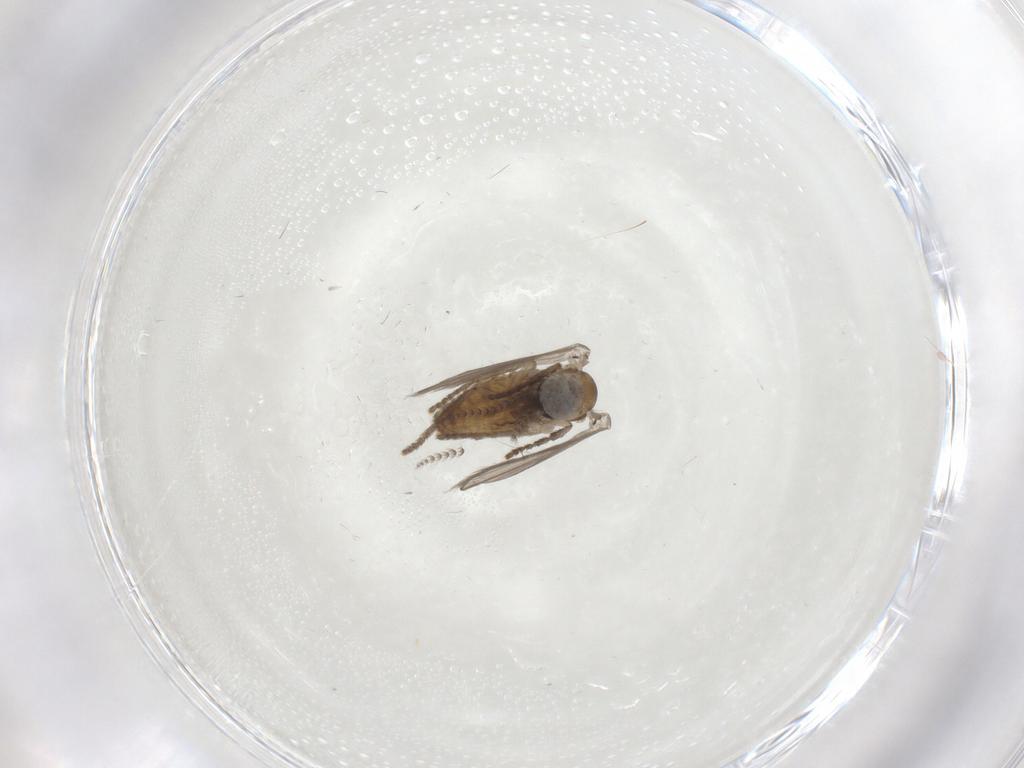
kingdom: Animalia
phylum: Arthropoda
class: Insecta
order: Diptera
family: Psychodidae
